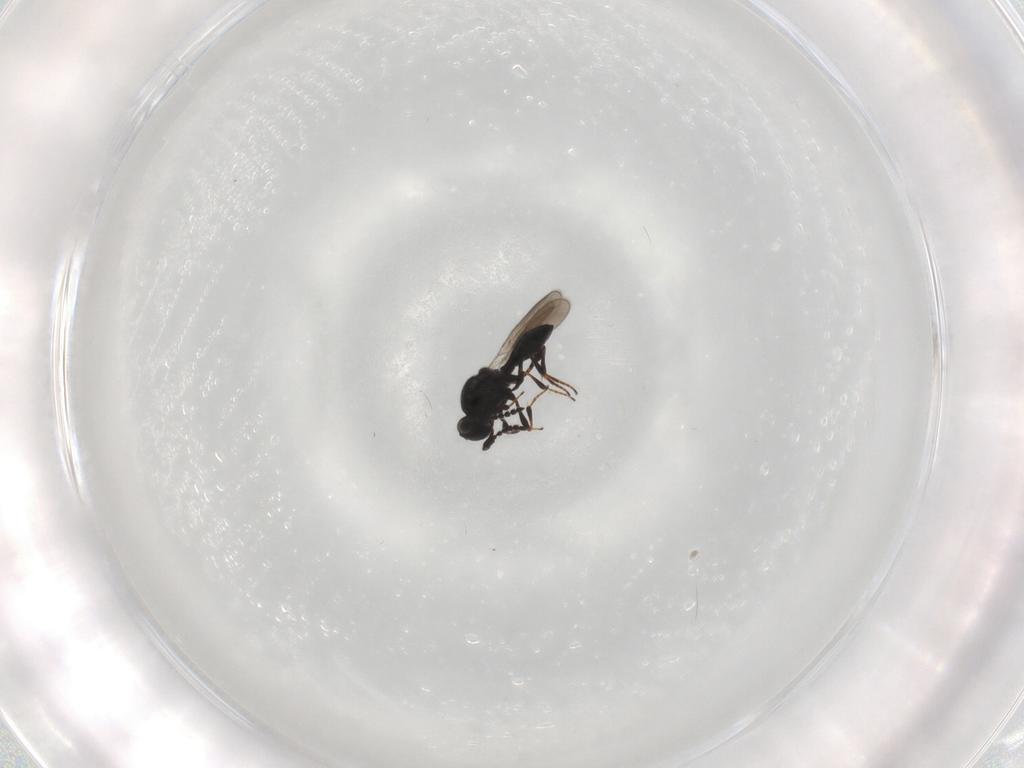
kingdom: Animalia
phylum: Arthropoda
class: Insecta
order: Hymenoptera
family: Platygastridae
